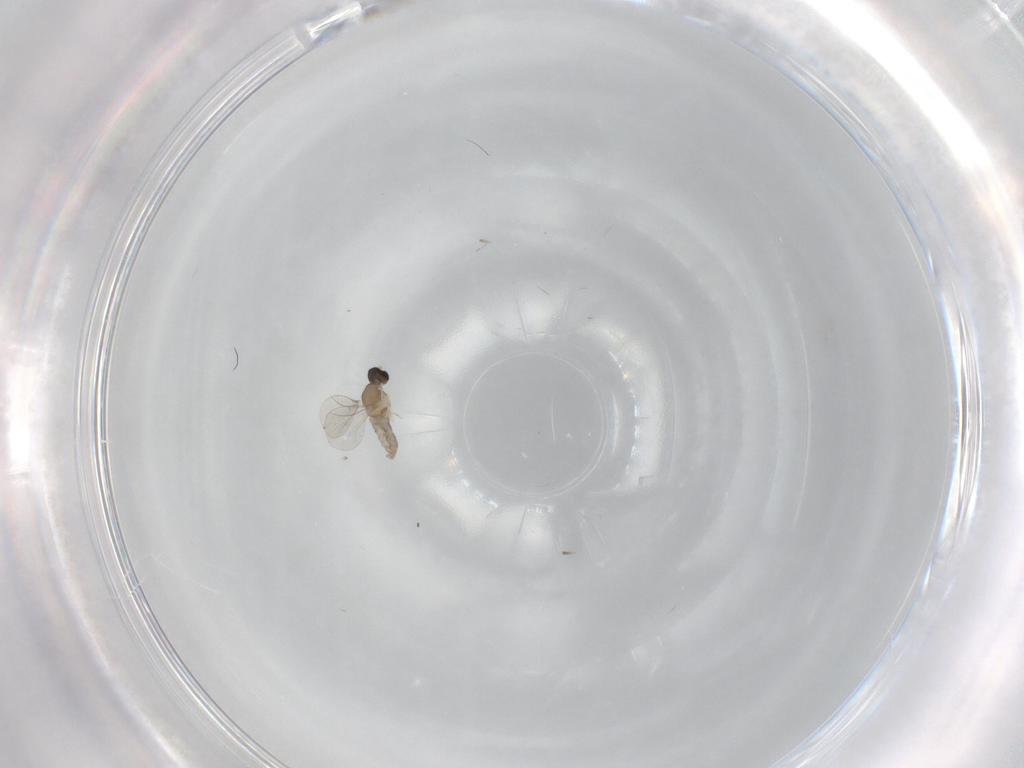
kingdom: Animalia
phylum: Arthropoda
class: Insecta
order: Diptera
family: Cecidomyiidae
